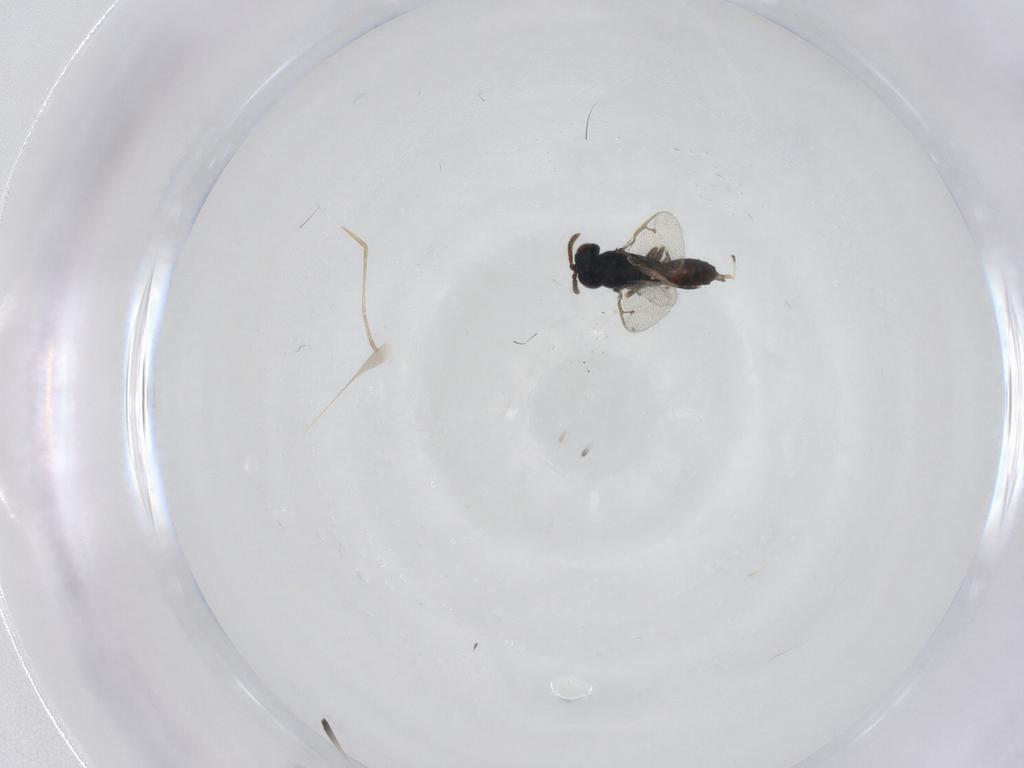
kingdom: Animalia
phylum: Arthropoda
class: Insecta
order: Hymenoptera
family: Pteromalidae
